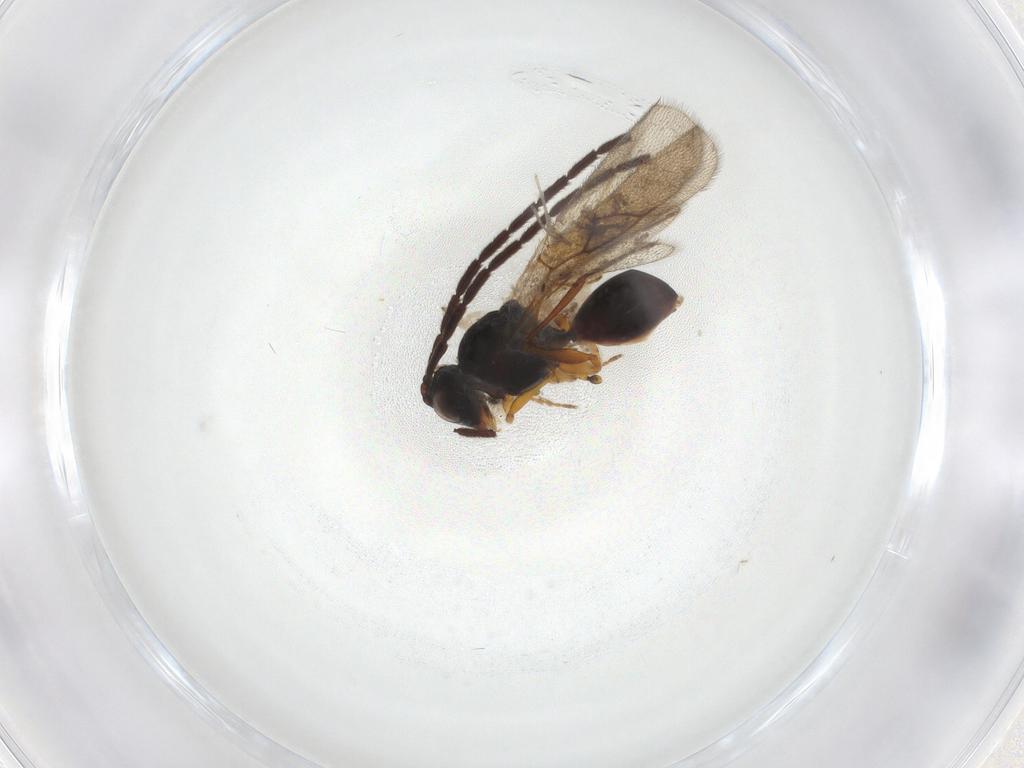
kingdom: Animalia
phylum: Arthropoda
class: Insecta
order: Hymenoptera
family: Figitidae
